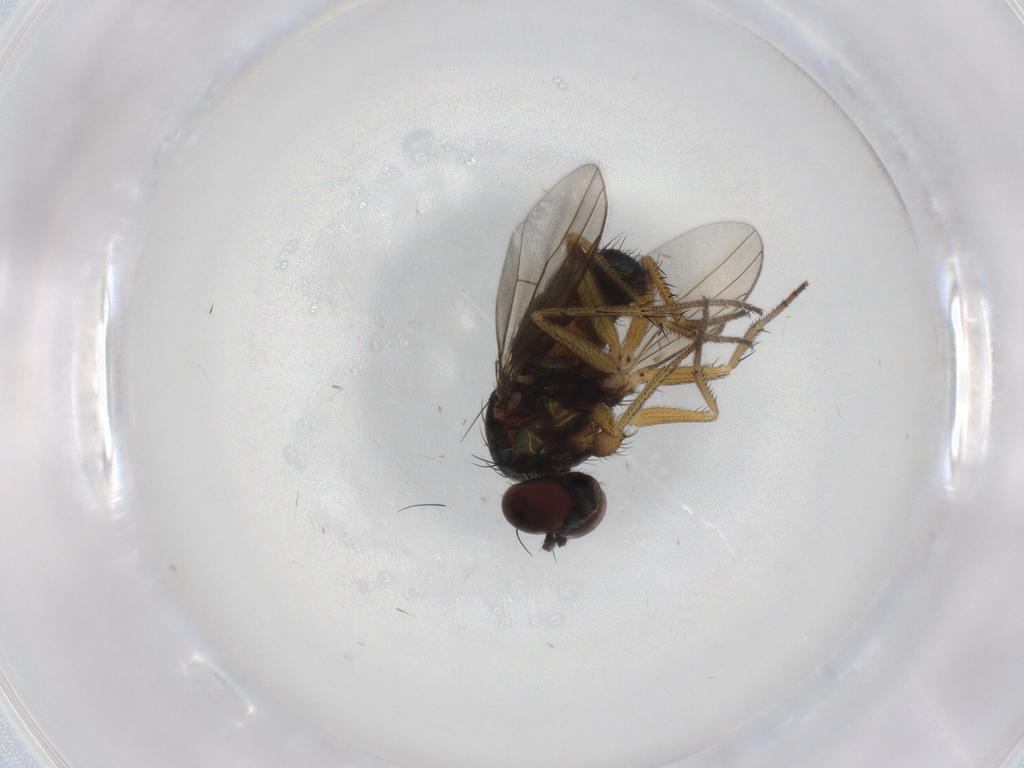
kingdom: Animalia
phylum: Arthropoda
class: Insecta
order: Diptera
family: Dolichopodidae
